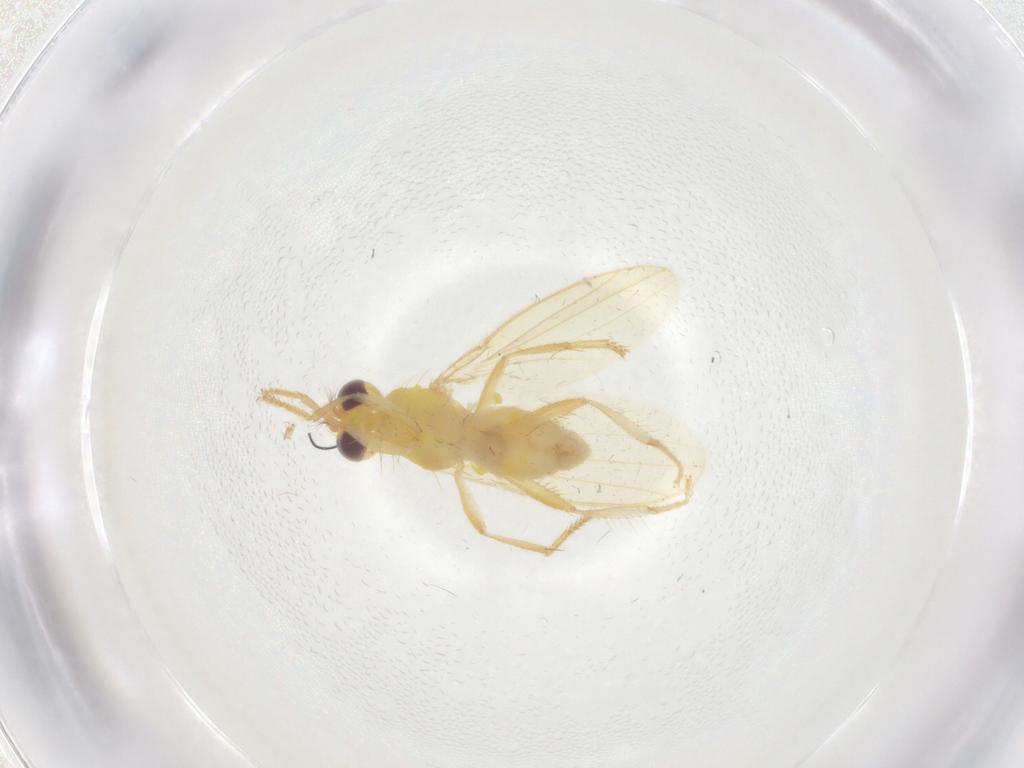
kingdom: Animalia
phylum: Arthropoda
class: Insecta
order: Diptera
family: Periscelididae
